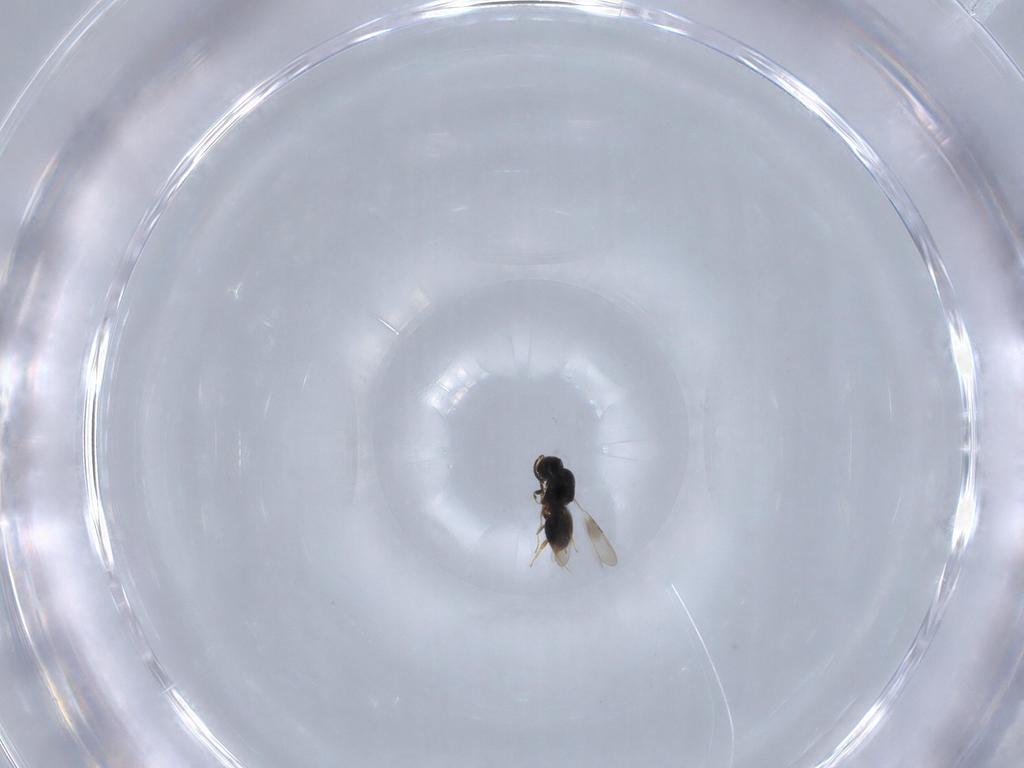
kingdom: Animalia
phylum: Arthropoda
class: Insecta
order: Hymenoptera
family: Ceraphronidae
